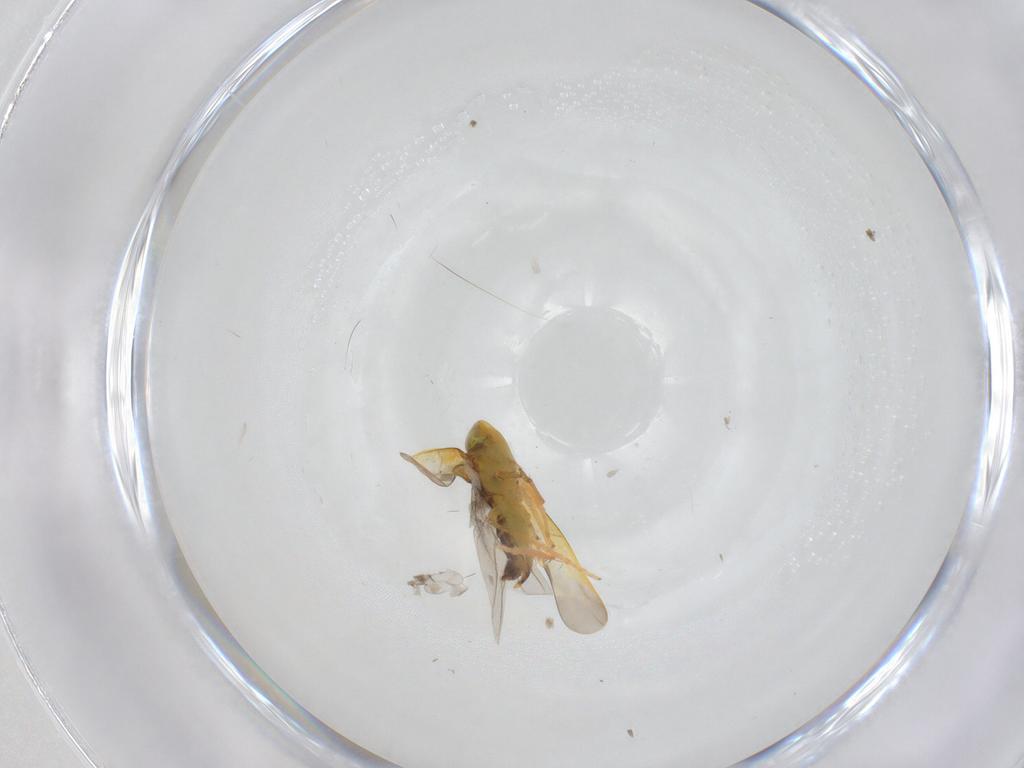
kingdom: Animalia
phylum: Arthropoda
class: Insecta
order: Hemiptera
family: Cicadellidae
